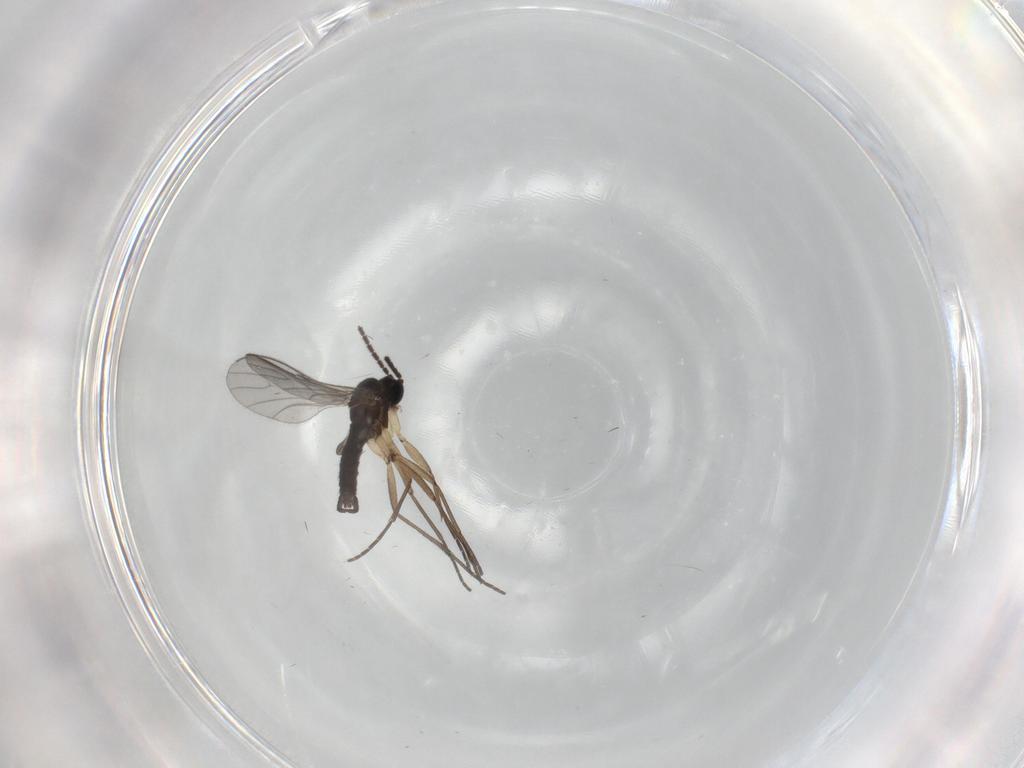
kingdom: Animalia
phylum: Arthropoda
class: Insecta
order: Diptera
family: Sciaridae
